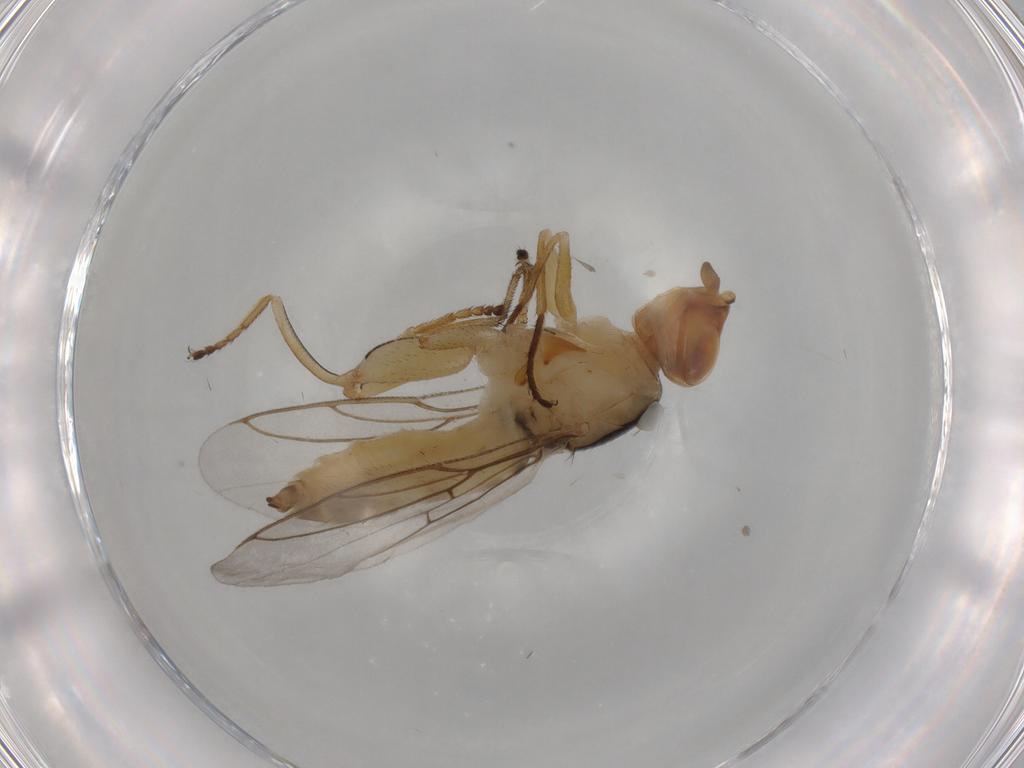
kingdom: Animalia
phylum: Arthropoda
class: Insecta
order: Diptera
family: Chloropidae
